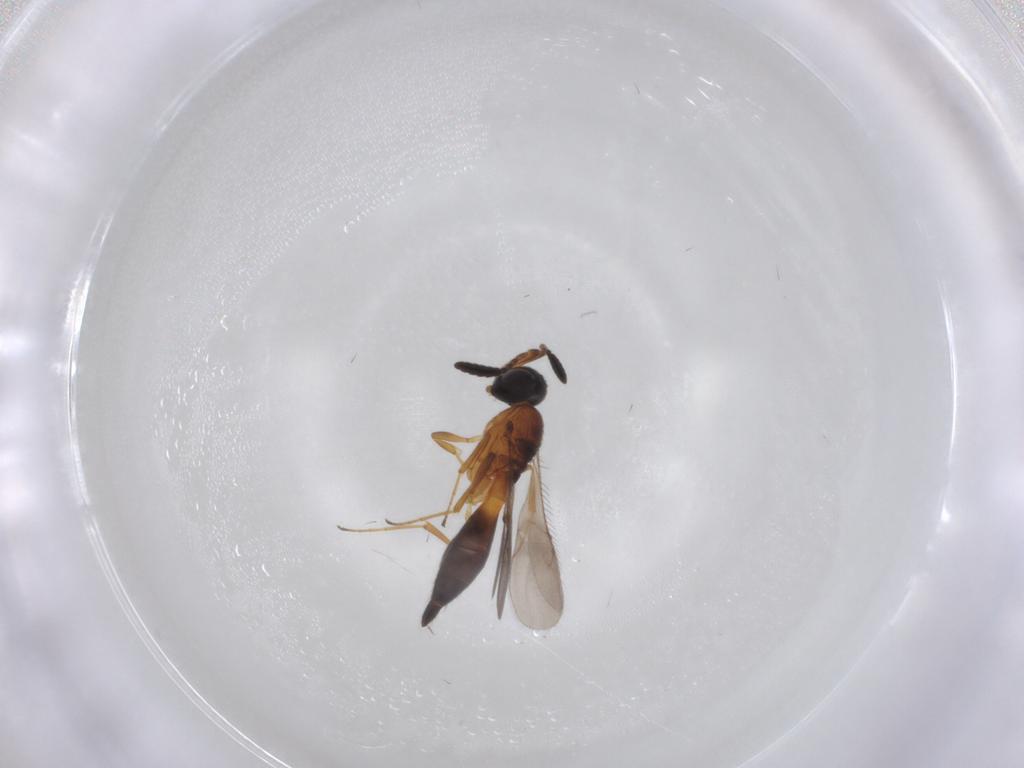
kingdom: Animalia
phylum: Arthropoda
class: Insecta
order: Hymenoptera
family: Scelionidae
